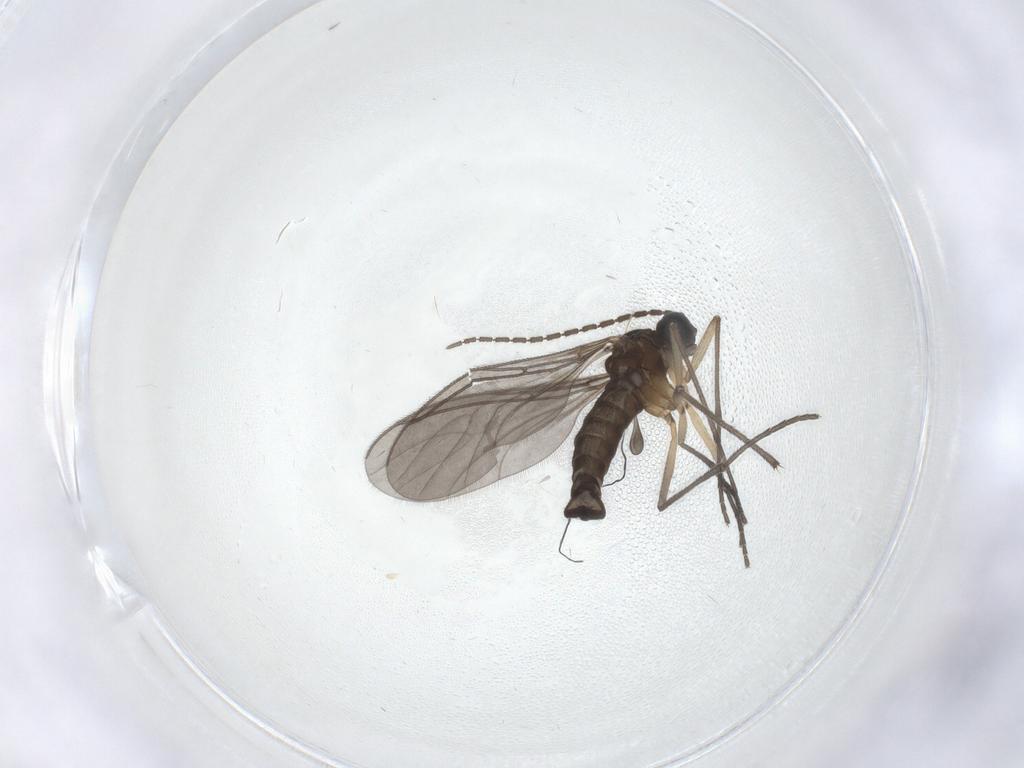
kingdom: Animalia
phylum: Arthropoda
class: Insecta
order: Diptera
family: Sciaridae
